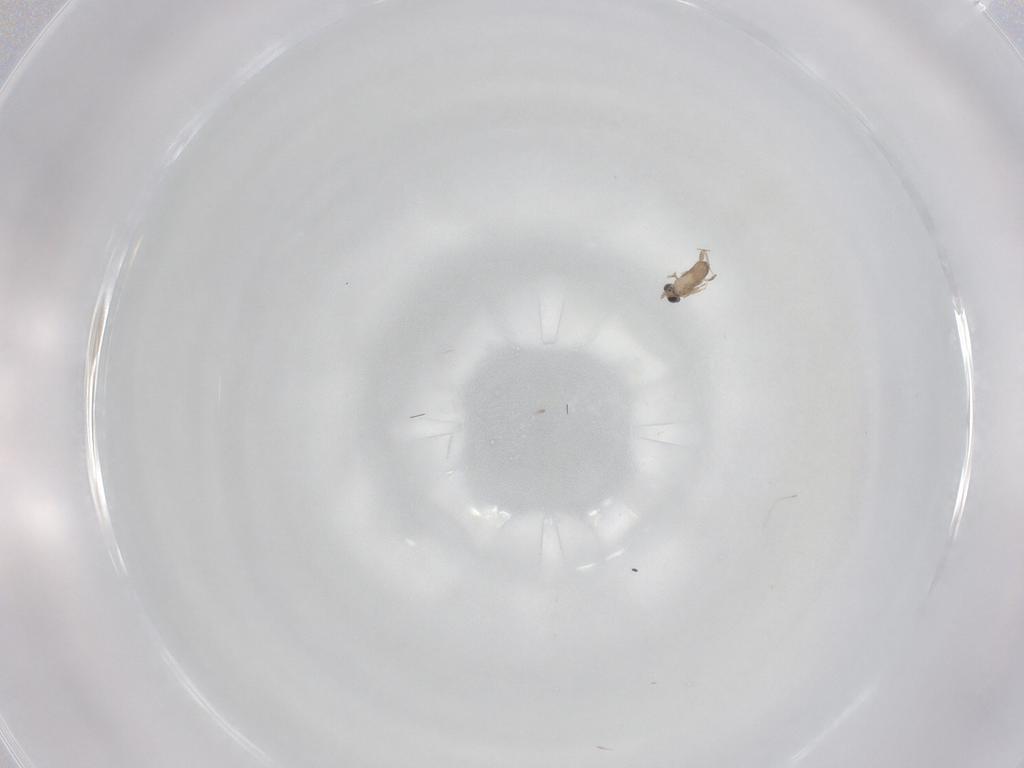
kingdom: Animalia
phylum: Arthropoda
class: Insecta
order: Hymenoptera
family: Trichogrammatidae
